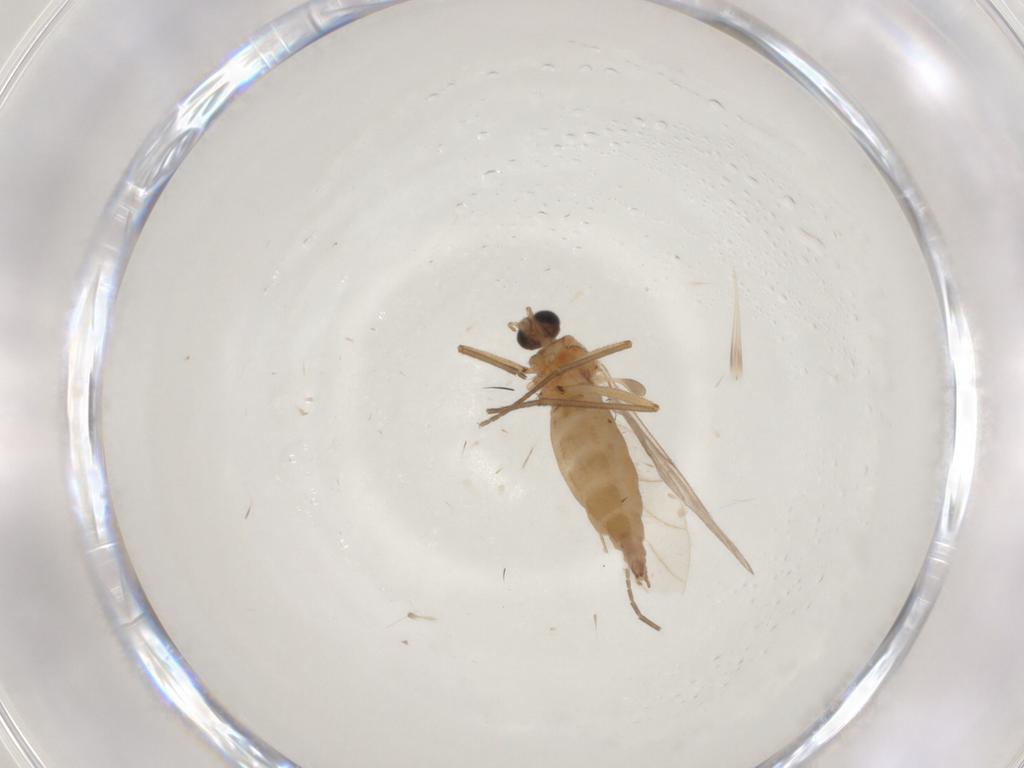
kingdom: Animalia
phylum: Arthropoda
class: Insecta
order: Diptera
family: Sciaridae
